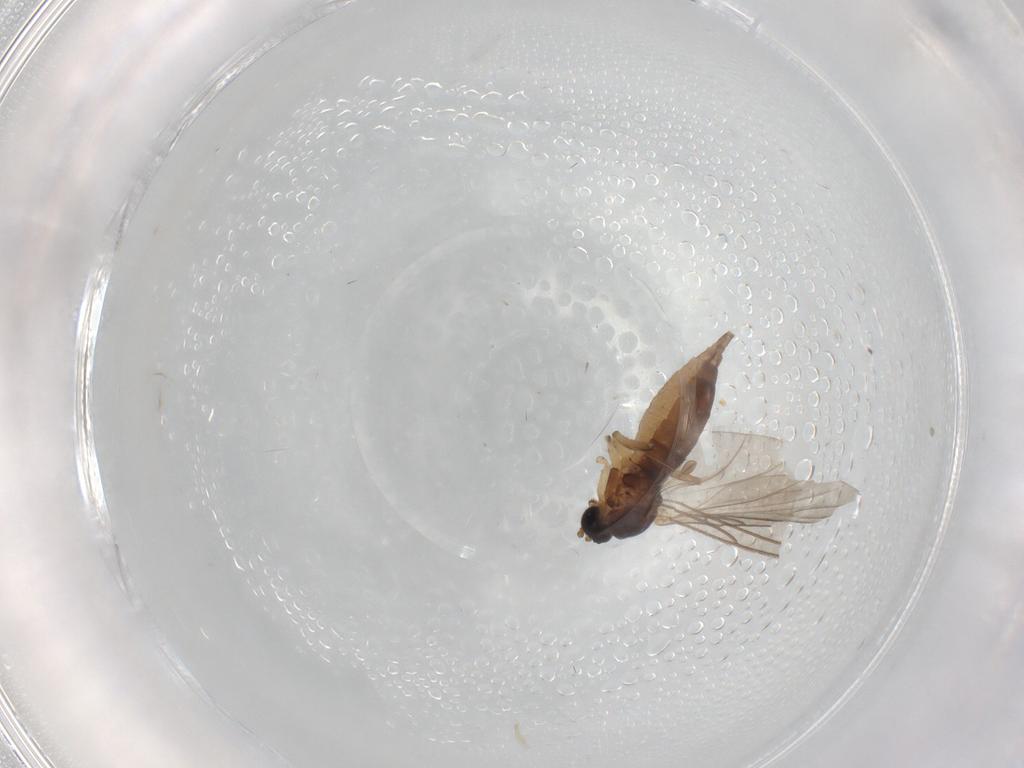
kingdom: Animalia
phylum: Arthropoda
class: Insecta
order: Diptera
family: Sciaridae
